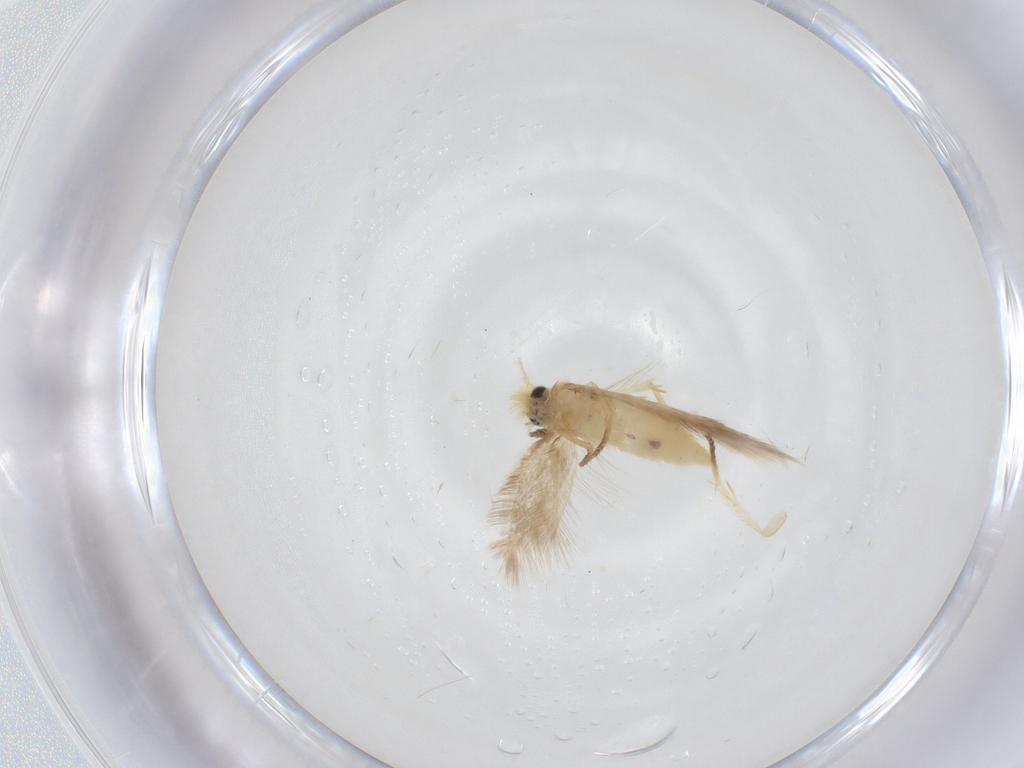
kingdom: Animalia
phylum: Arthropoda
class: Insecta
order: Lepidoptera
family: Nepticulidae
